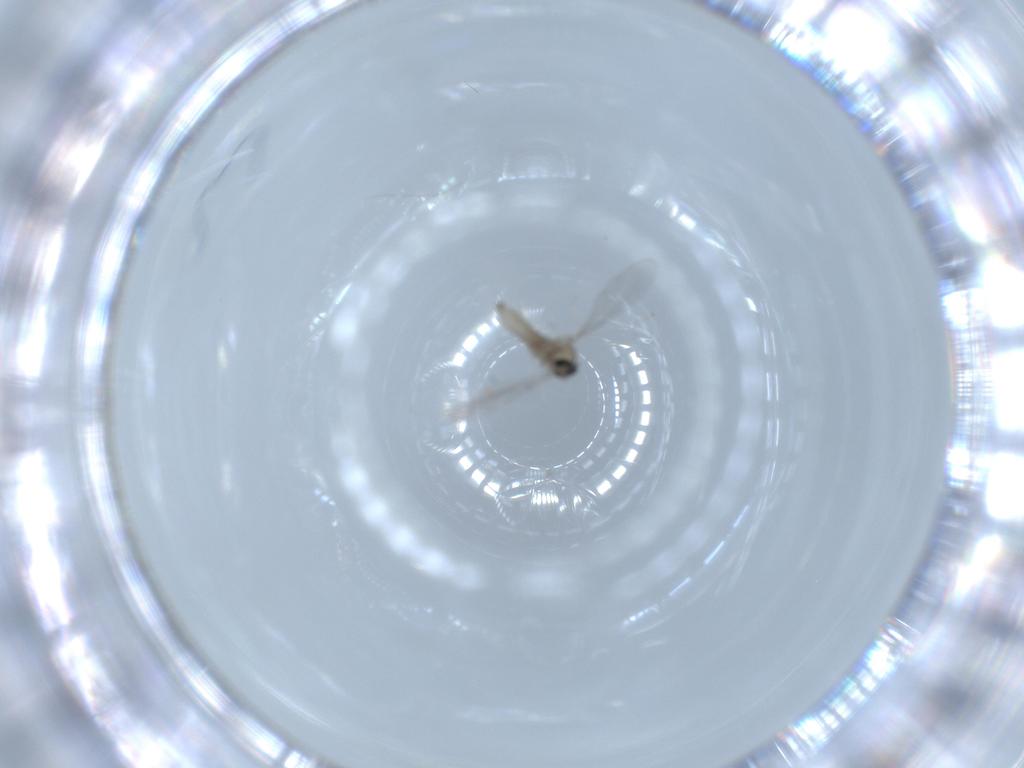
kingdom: Animalia
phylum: Arthropoda
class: Insecta
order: Diptera
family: Cecidomyiidae
